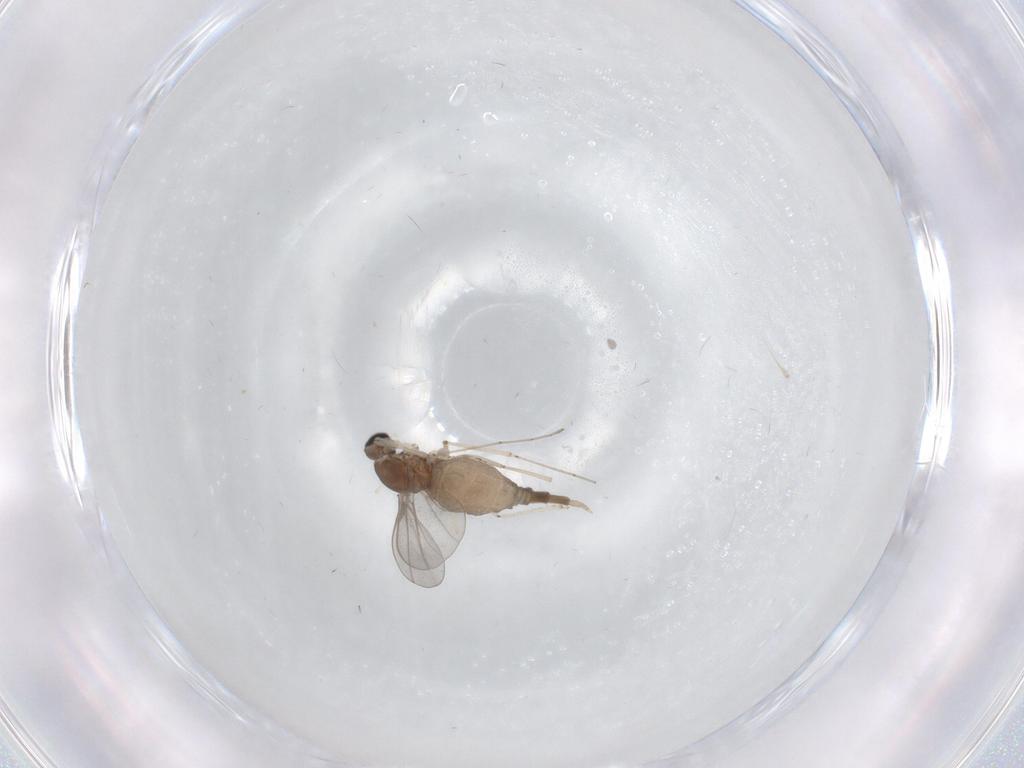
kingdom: Animalia
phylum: Arthropoda
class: Insecta
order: Diptera
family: Cecidomyiidae
